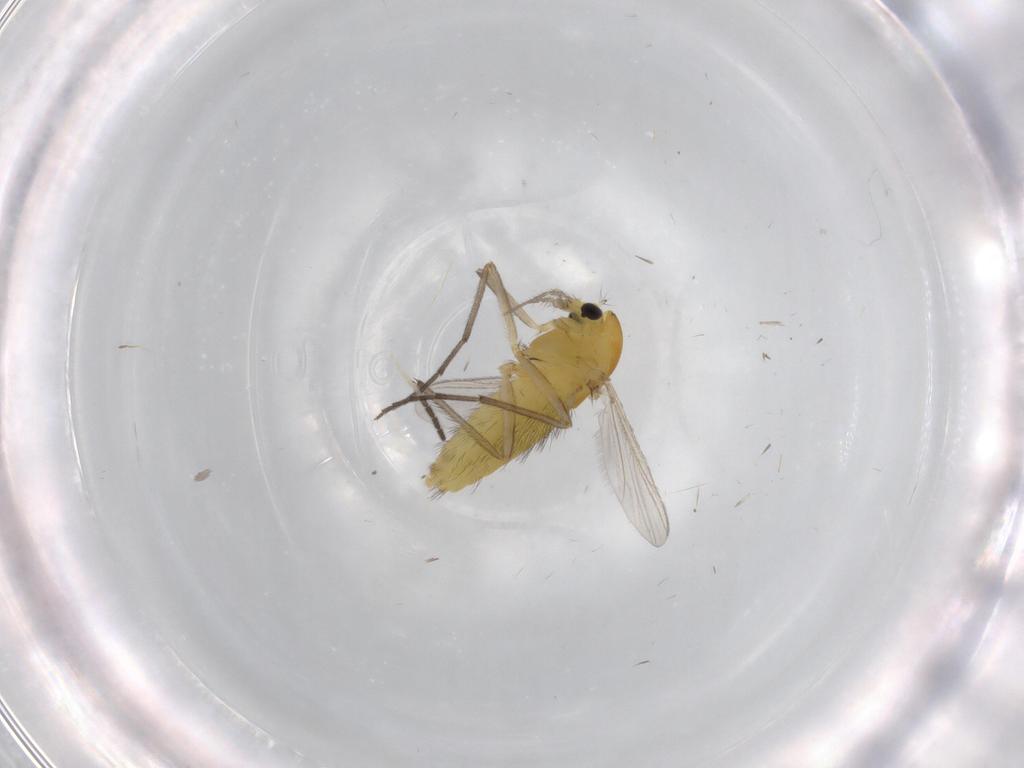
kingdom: Animalia
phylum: Arthropoda
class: Insecta
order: Diptera
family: Chironomidae
